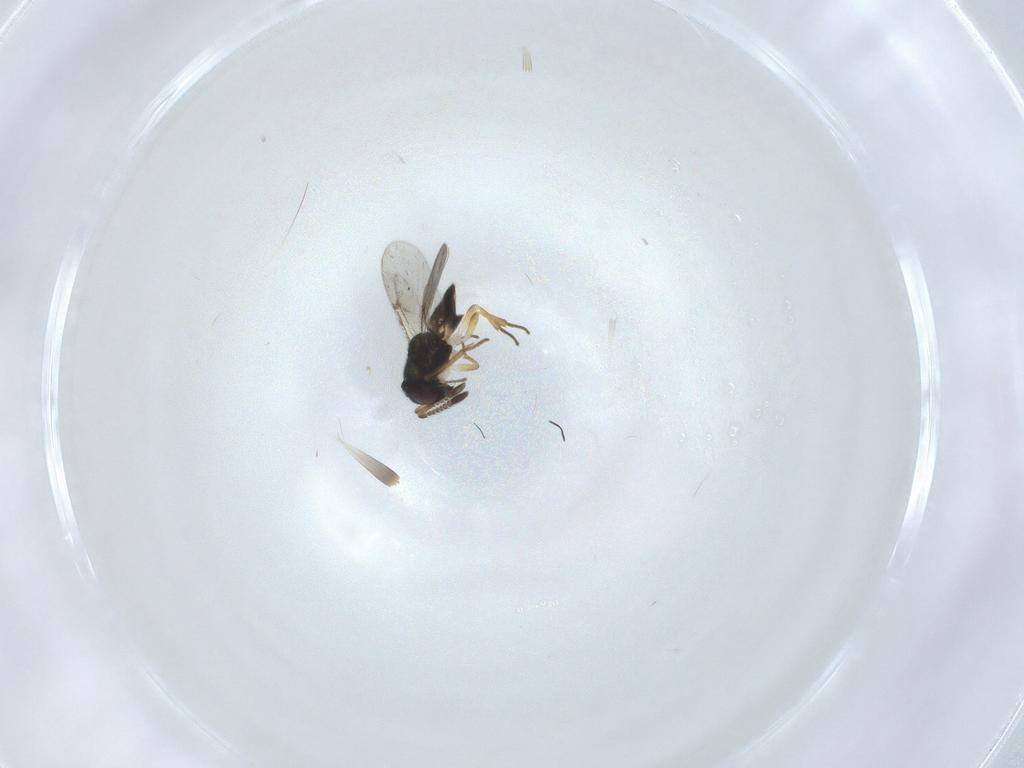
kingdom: Animalia
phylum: Arthropoda
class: Insecta
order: Hymenoptera
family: Encyrtidae
